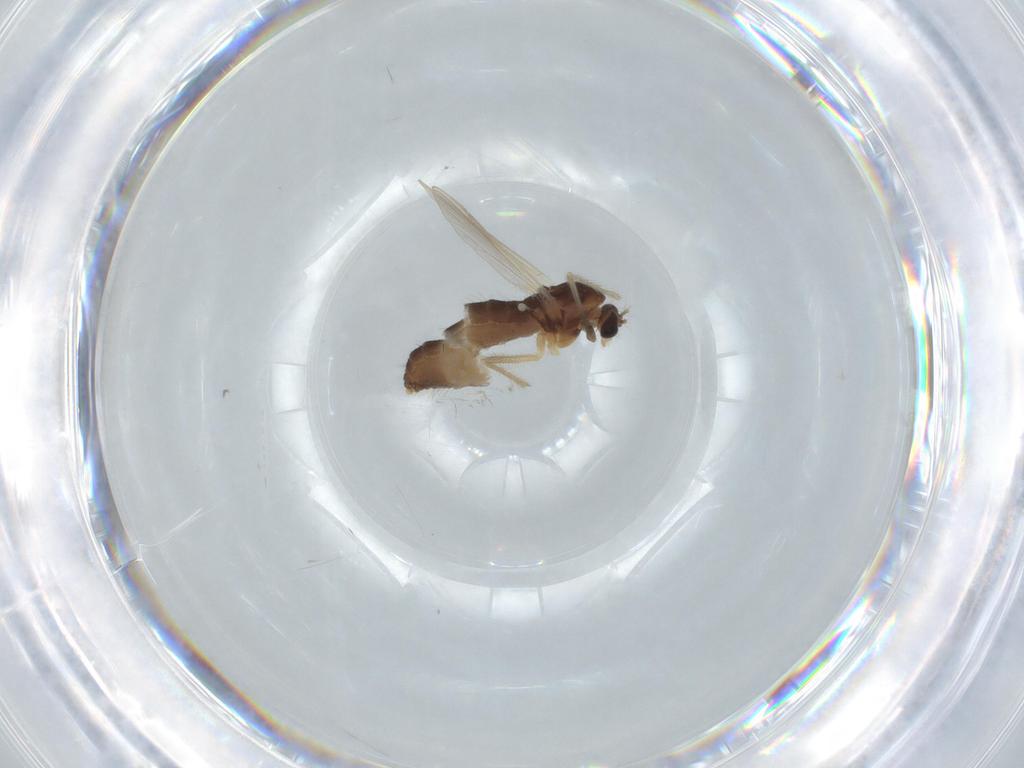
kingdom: Animalia
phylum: Arthropoda
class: Insecta
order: Diptera
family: Chironomidae
